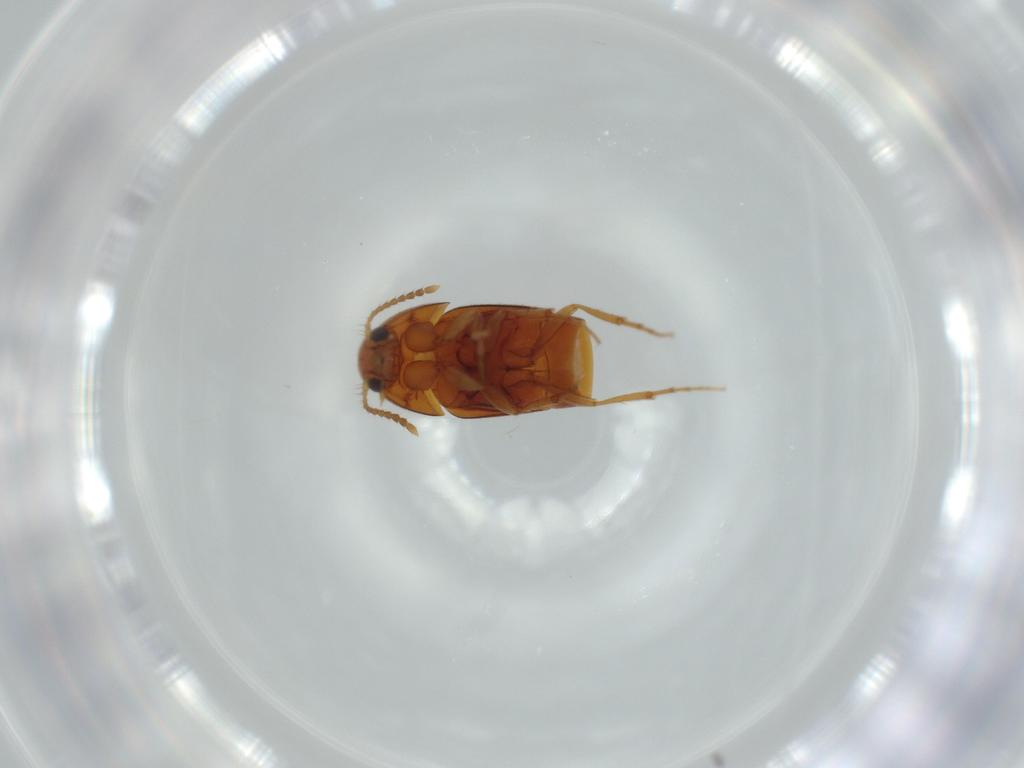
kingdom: Animalia
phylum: Arthropoda
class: Insecta
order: Coleoptera
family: Staphylinidae
